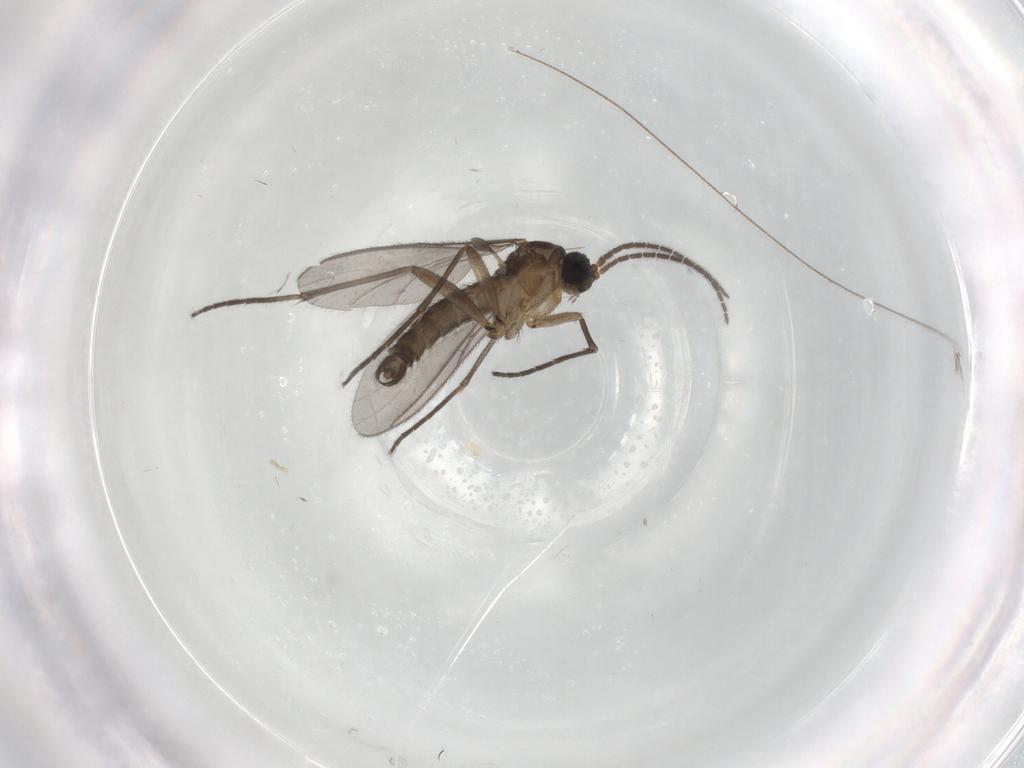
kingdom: Animalia
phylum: Arthropoda
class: Insecta
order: Diptera
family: Sciaridae
